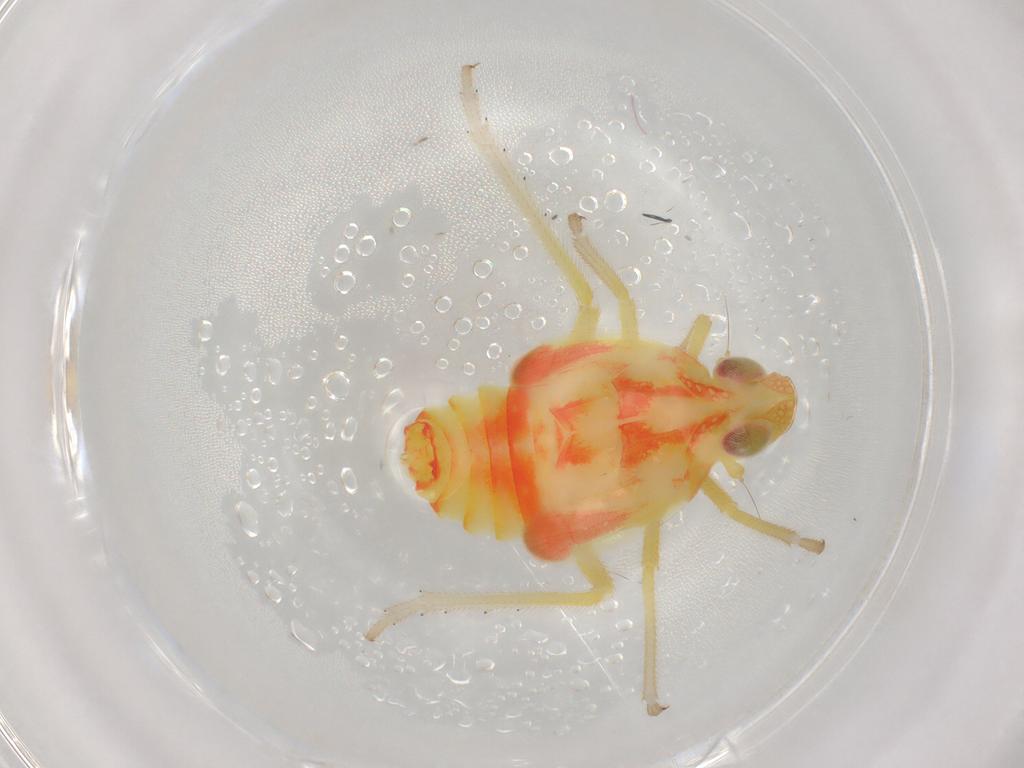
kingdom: Animalia
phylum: Arthropoda
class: Insecta
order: Hemiptera
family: Tropiduchidae
